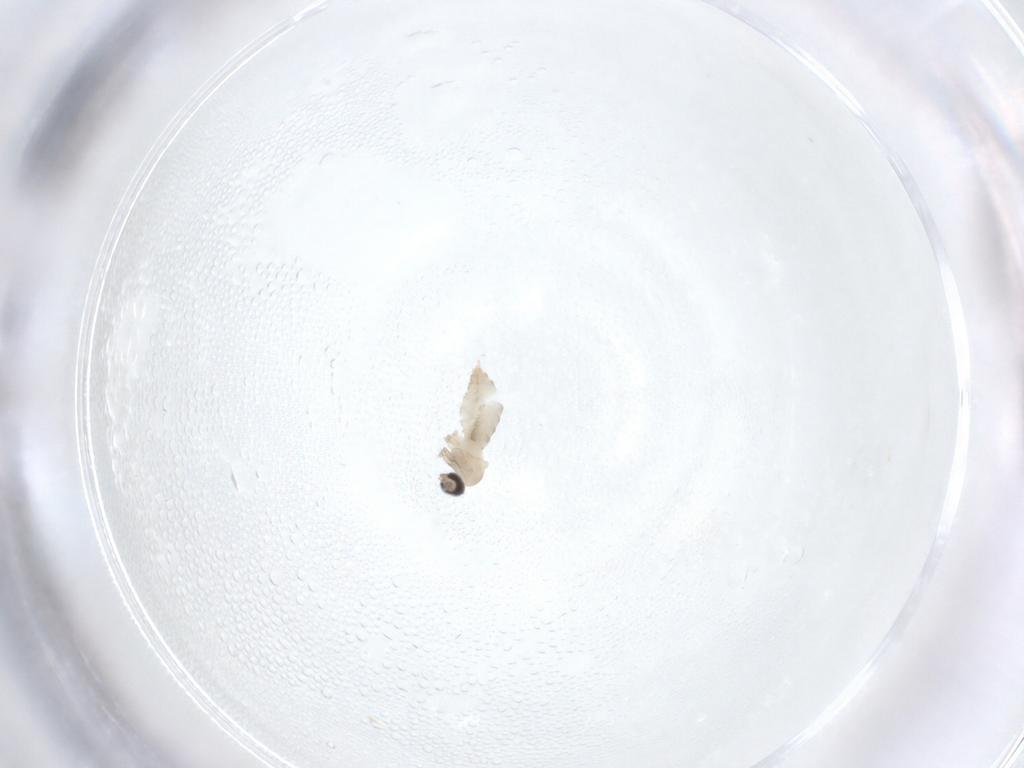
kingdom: Animalia
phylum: Arthropoda
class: Insecta
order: Diptera
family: Cecidomyiidae
